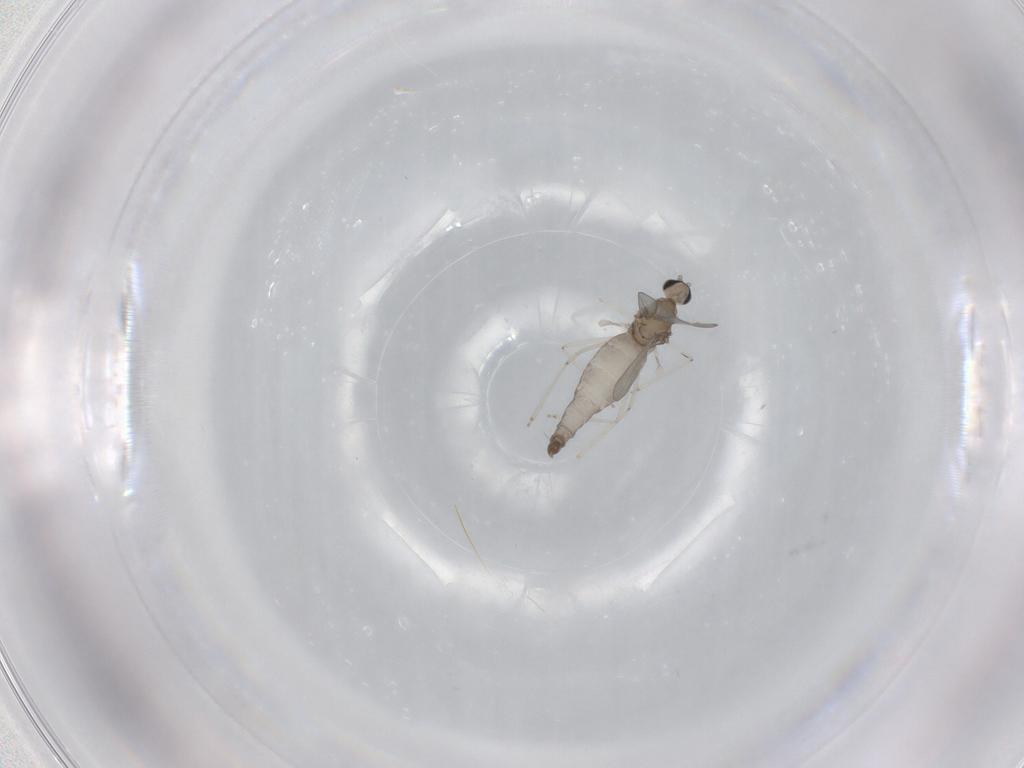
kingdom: Animalia
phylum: Arthropoda
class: Insecta
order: Diptera
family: Cecidomyiidae
